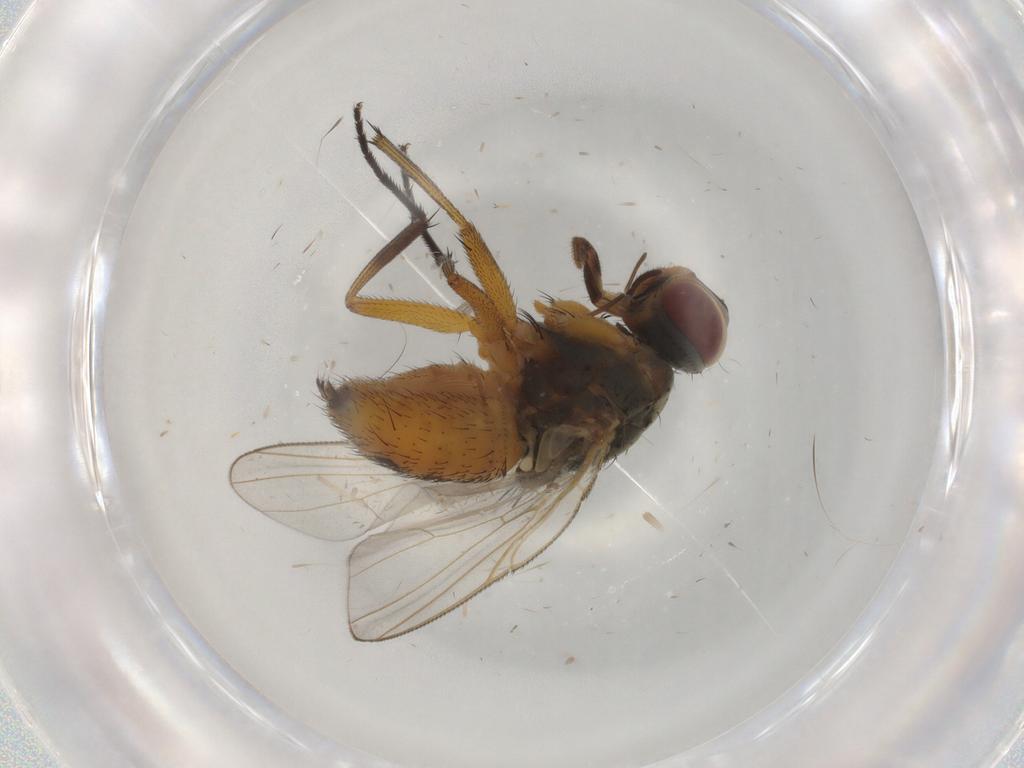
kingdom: Animalia
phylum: Arthropoda
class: Insecta
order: Diptera
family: Muscidae
